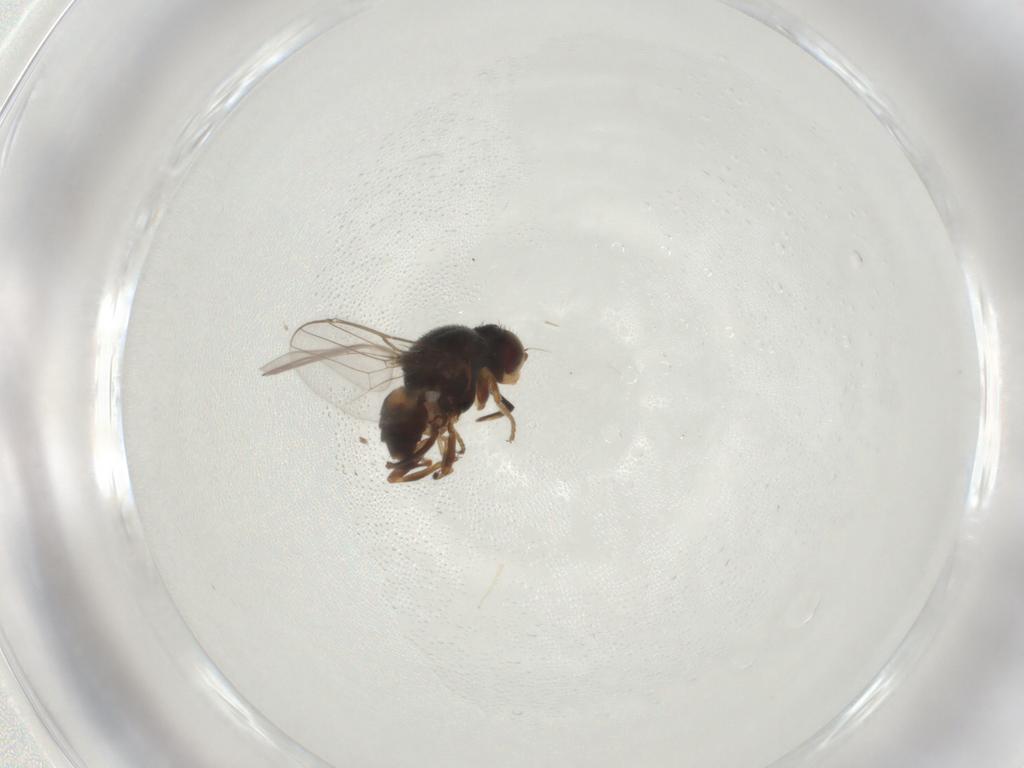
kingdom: Animalia
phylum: Arthropoda
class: Insecta
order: Diptera
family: Chloropidae
